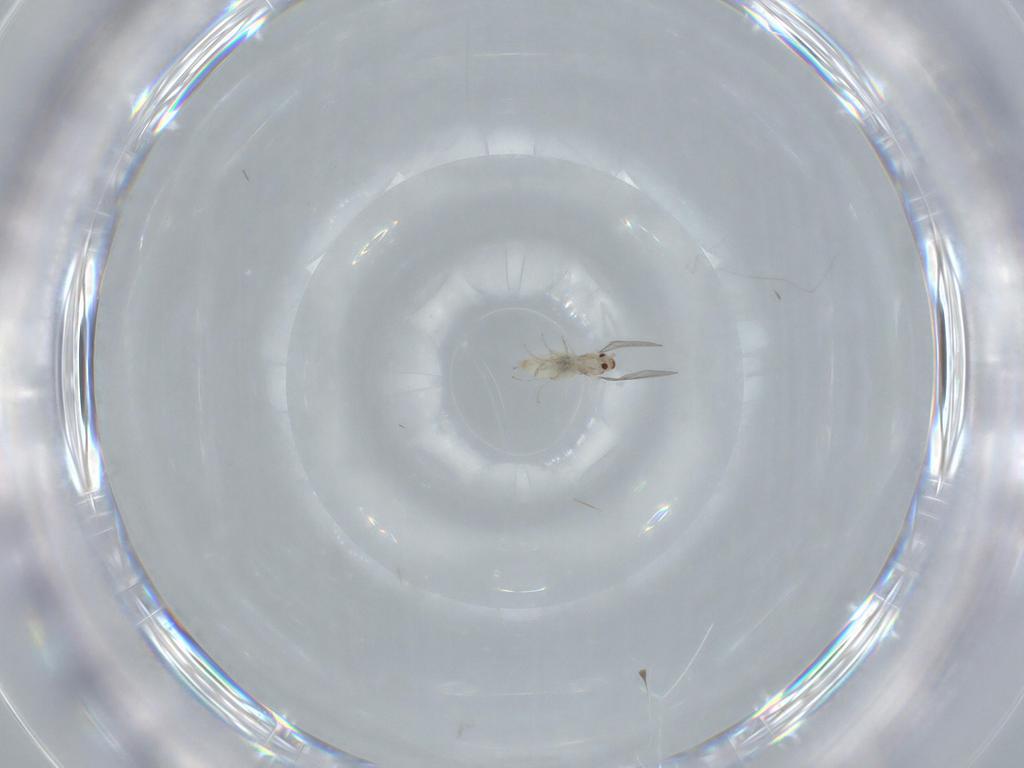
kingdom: Animalia
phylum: Arthropoda
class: Insecta
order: Diptera
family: Cecidomyiidae
